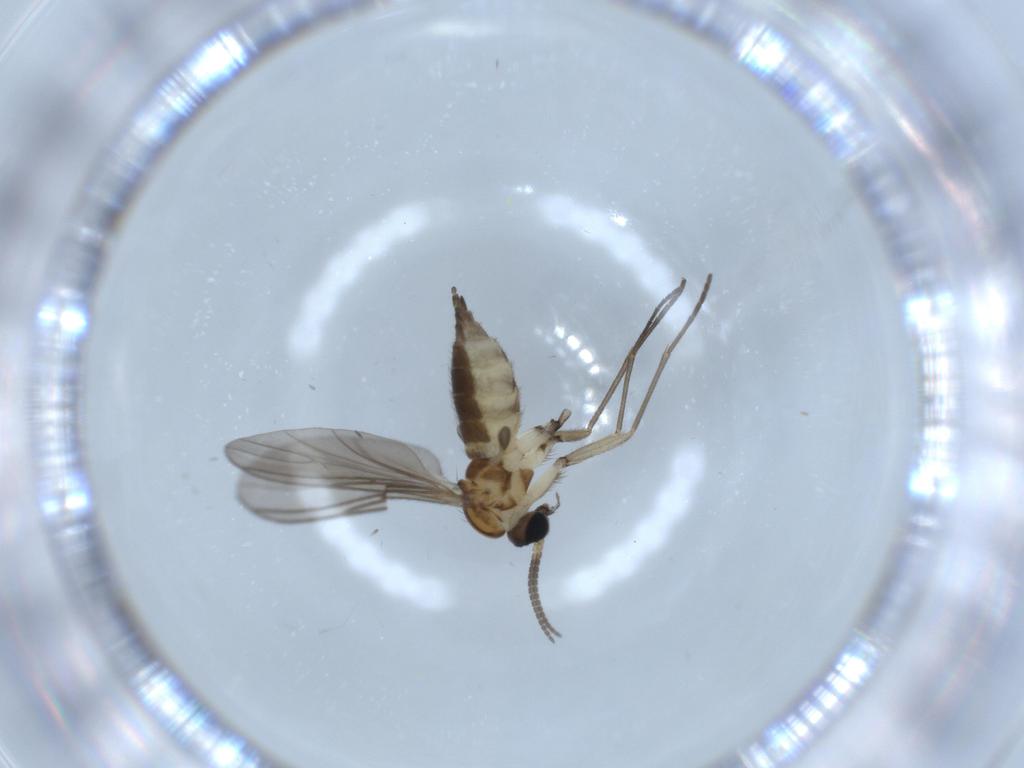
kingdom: Animalia
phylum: Arthropoda
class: Insecta
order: Diptera
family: Sciaridae
